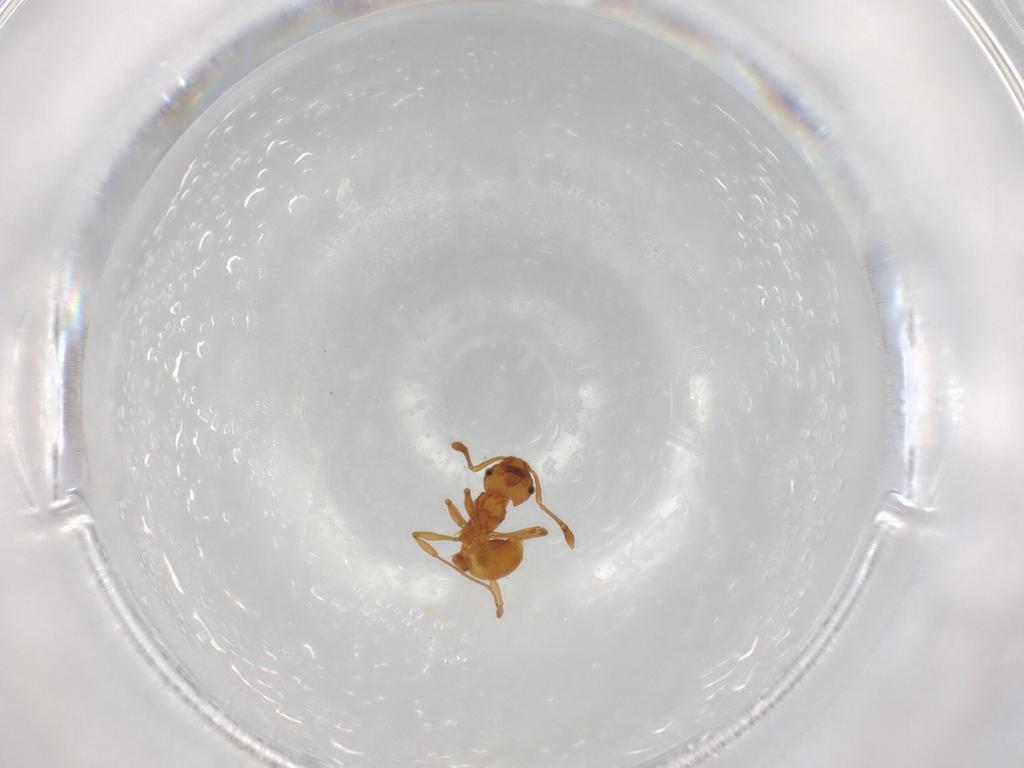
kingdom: Animalia
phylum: Arthropoda
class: Insecta
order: Hymenoptera
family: Formicidae
